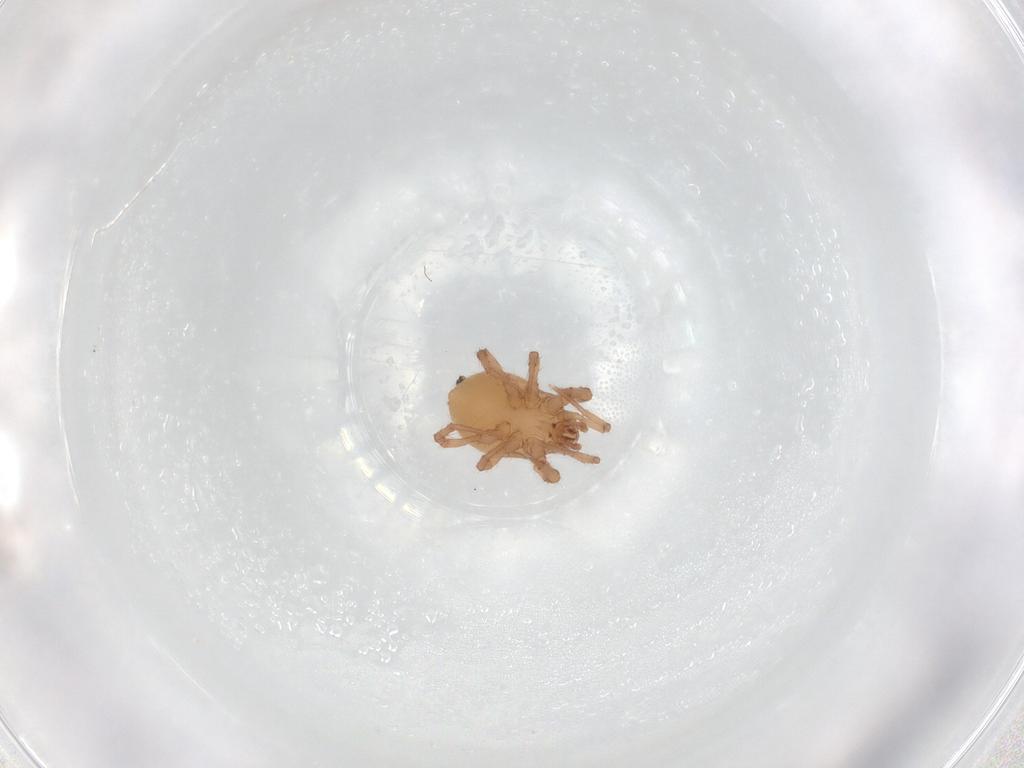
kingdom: Animalia
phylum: Arthropoda
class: Arachnida
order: Mesostigmata
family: Parasitidae
